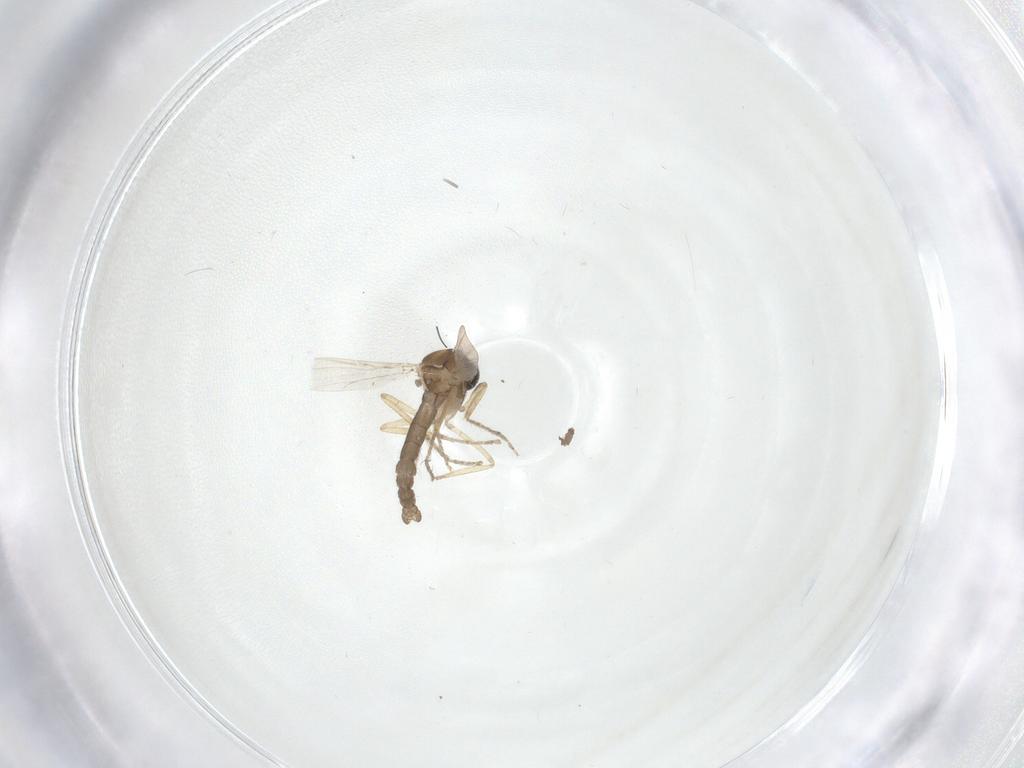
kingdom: Animalia
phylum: Arthropoda
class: Insecta
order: Diptera
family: Ceratopogonidae
